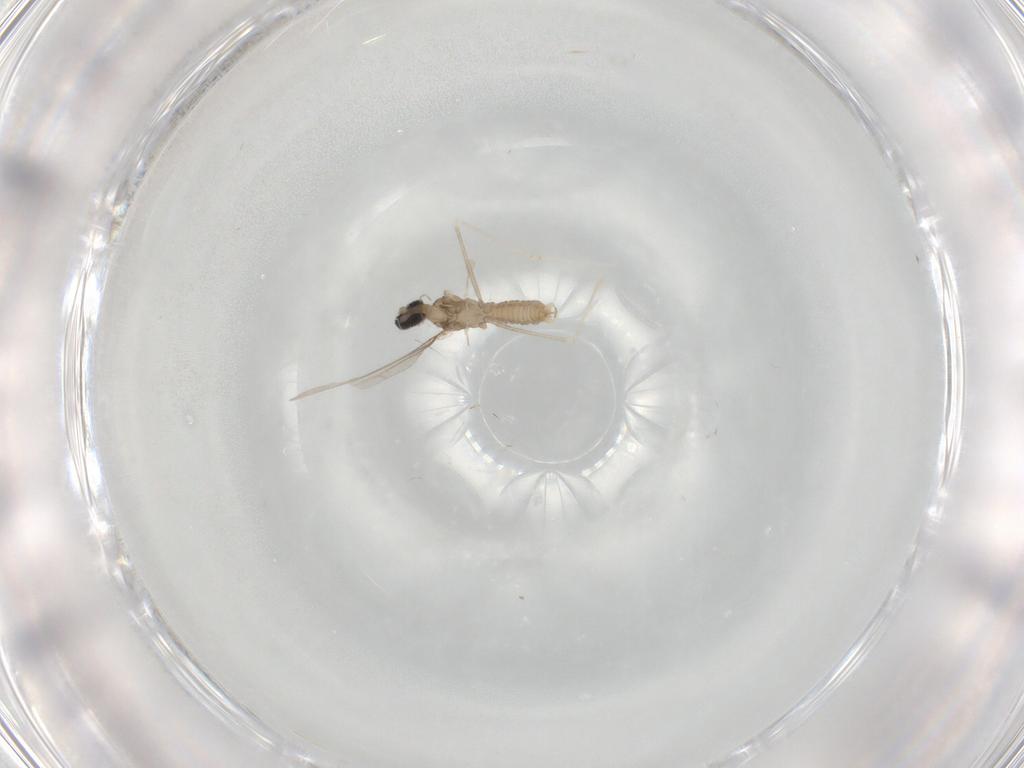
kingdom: Animalia
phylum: Arthropoda
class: Insecta
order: Diptera
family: Cecidomyiidae
